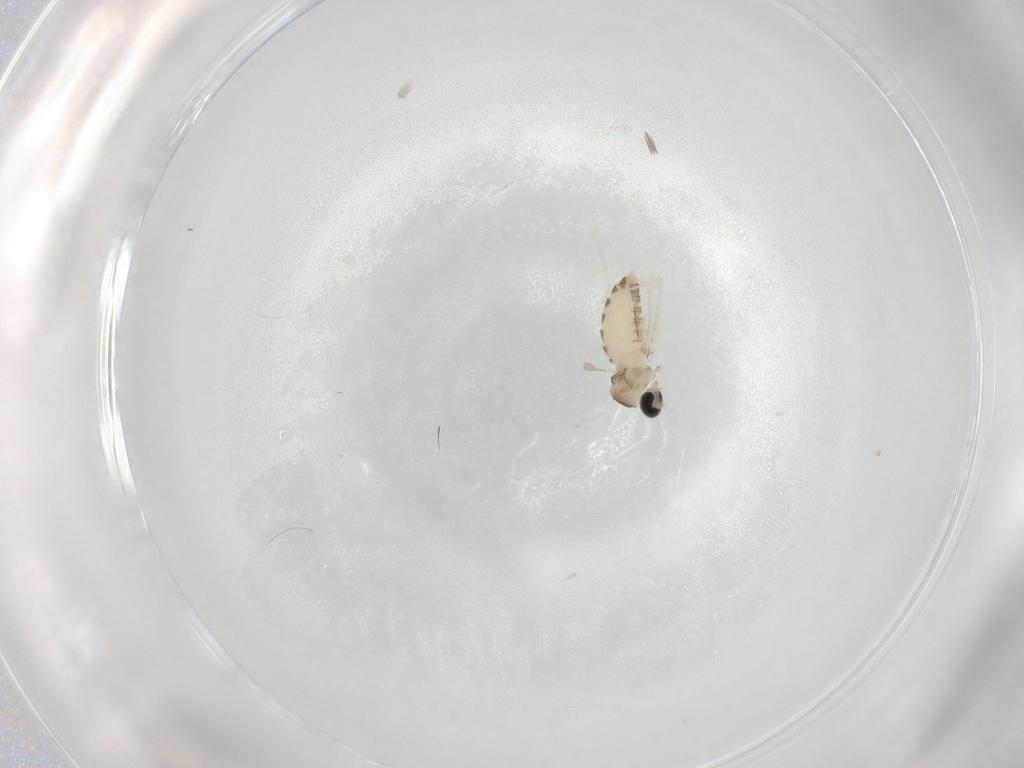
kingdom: Animalia
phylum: Arthropoda
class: Insecta
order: Diptera
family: Cecidomyiidae
